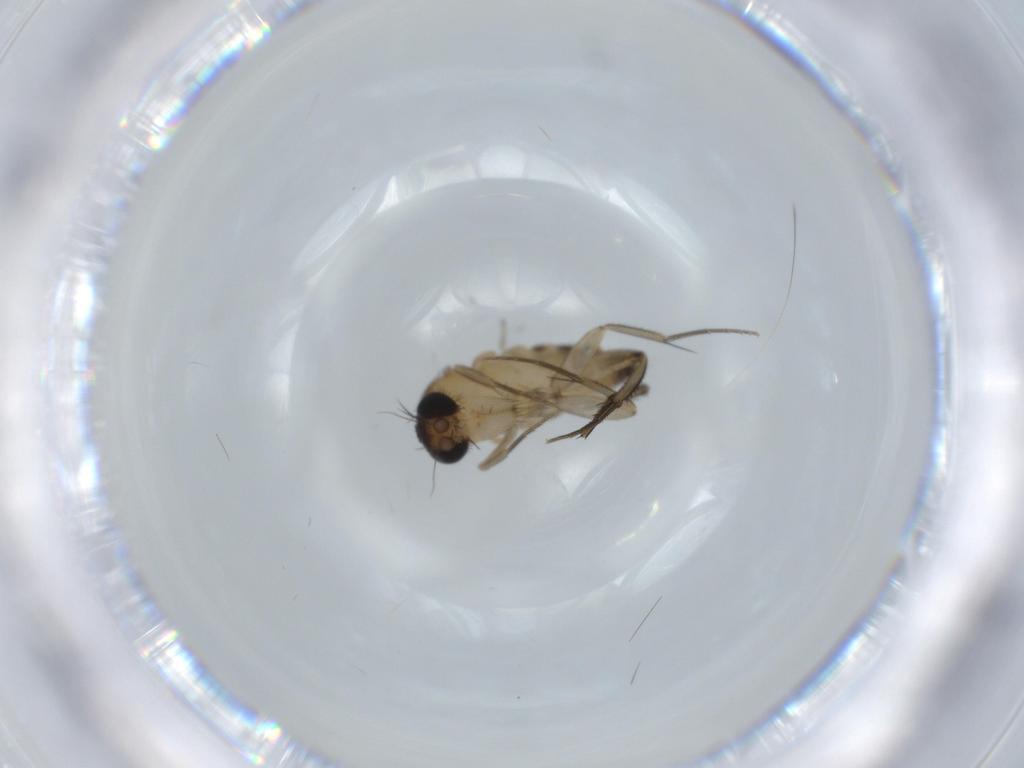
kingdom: Animalia
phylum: Arthropoda
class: Insecta
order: Diptera
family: Phoridae
